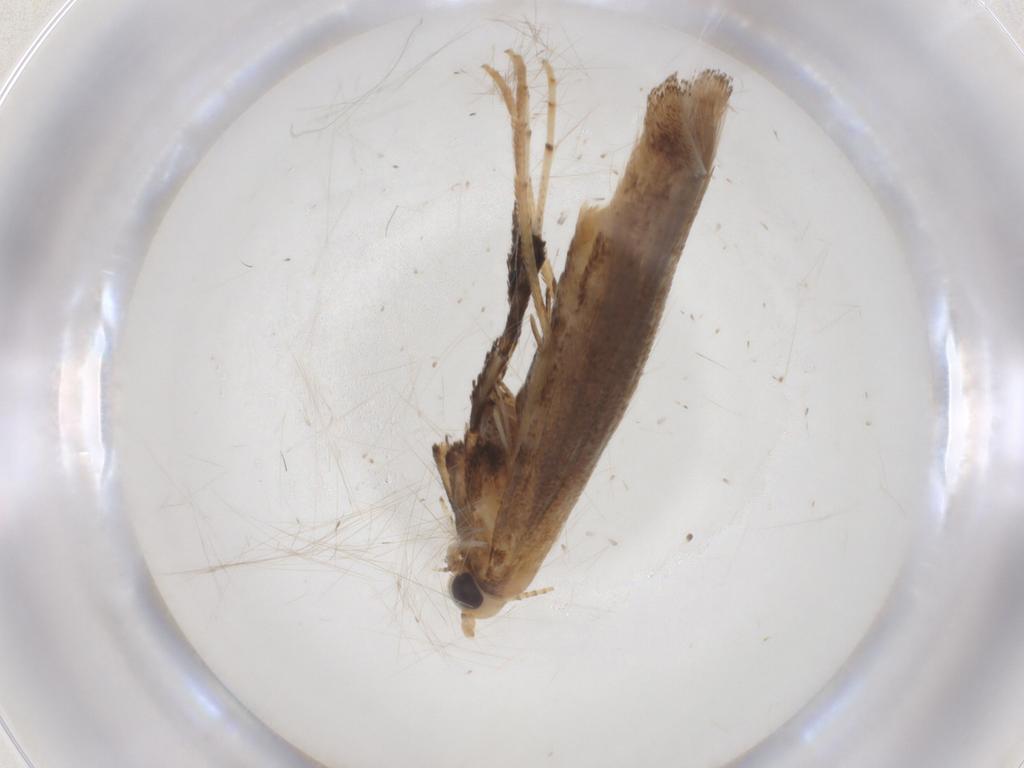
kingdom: Animalia
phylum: Arthropoda
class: Insecta
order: Lepidoptera
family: Gracillariidae
